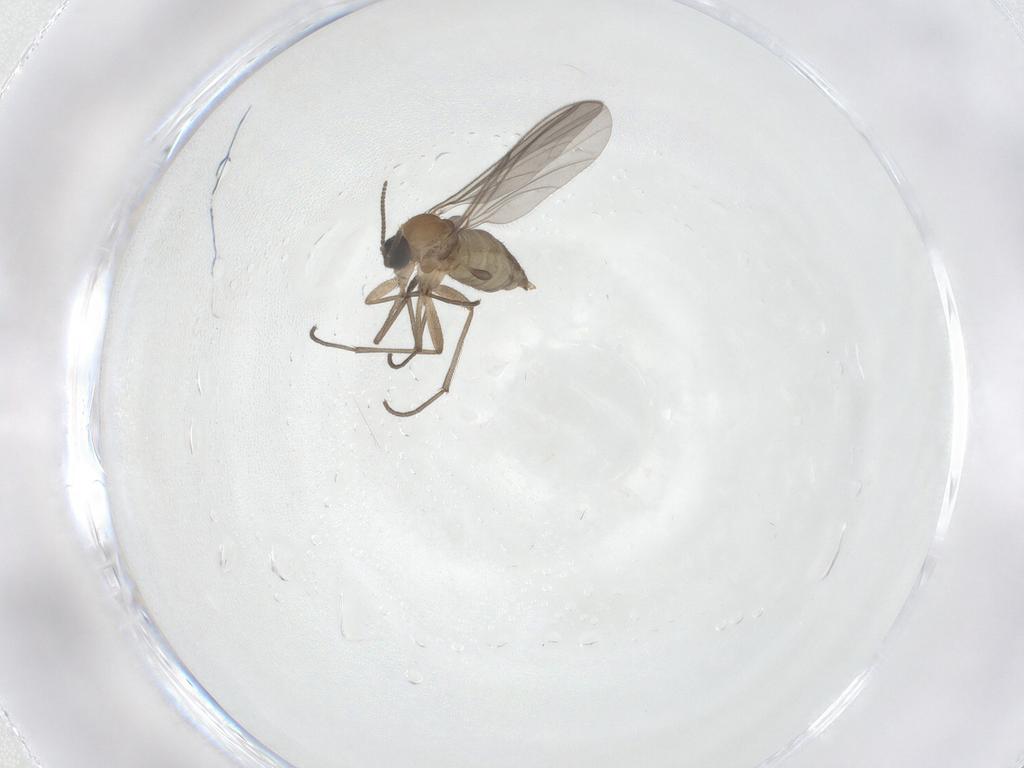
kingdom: Animalia
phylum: Arthropoda
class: Insecta
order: Diptera
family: Sciaridae
